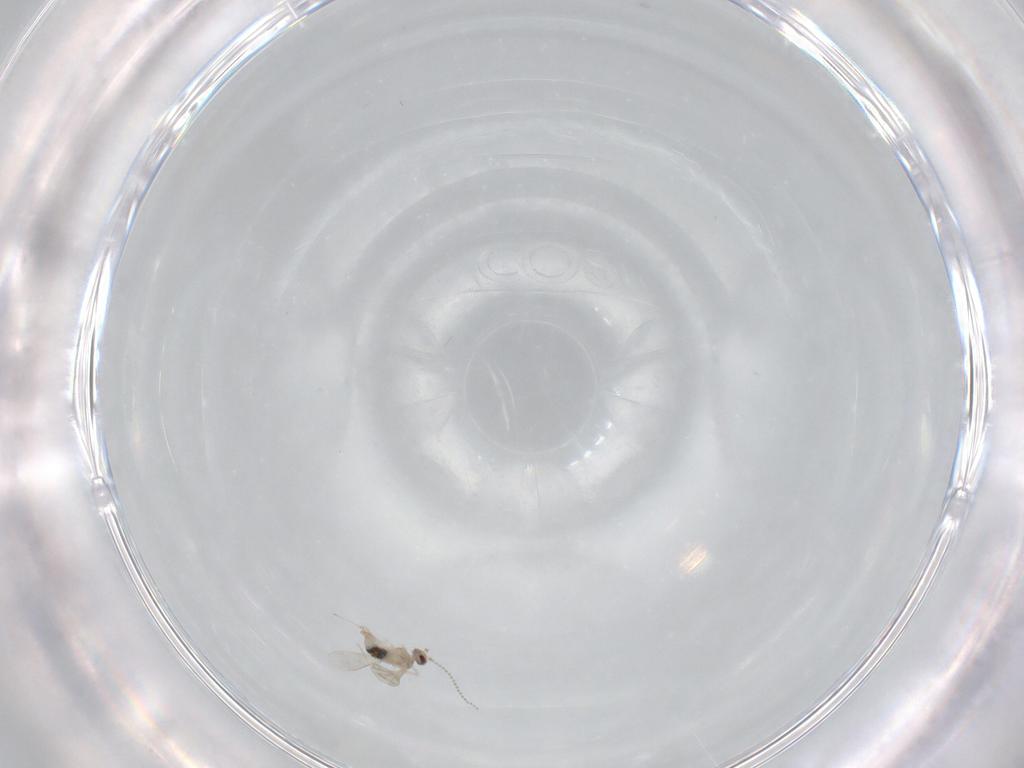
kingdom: Animalia
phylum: Arthropoda
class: Insecta
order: Diptera
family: Cecidomyiidae
